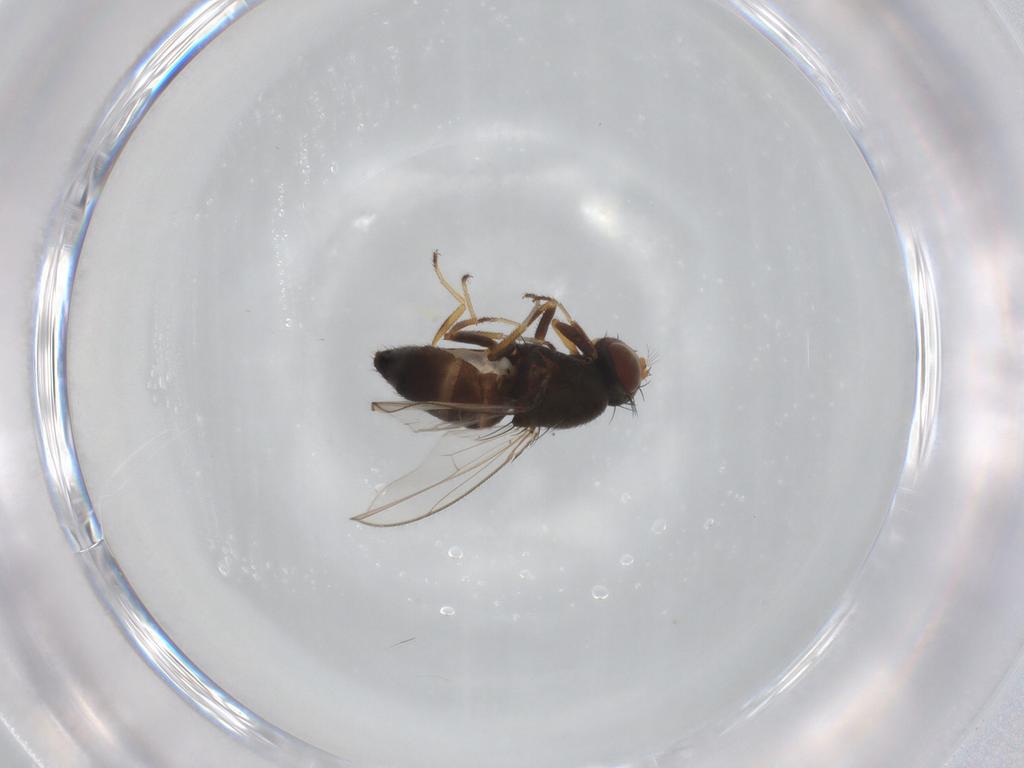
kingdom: Animalia
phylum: Arthropoda
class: Insecta
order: Diptera
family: Ephydridae
